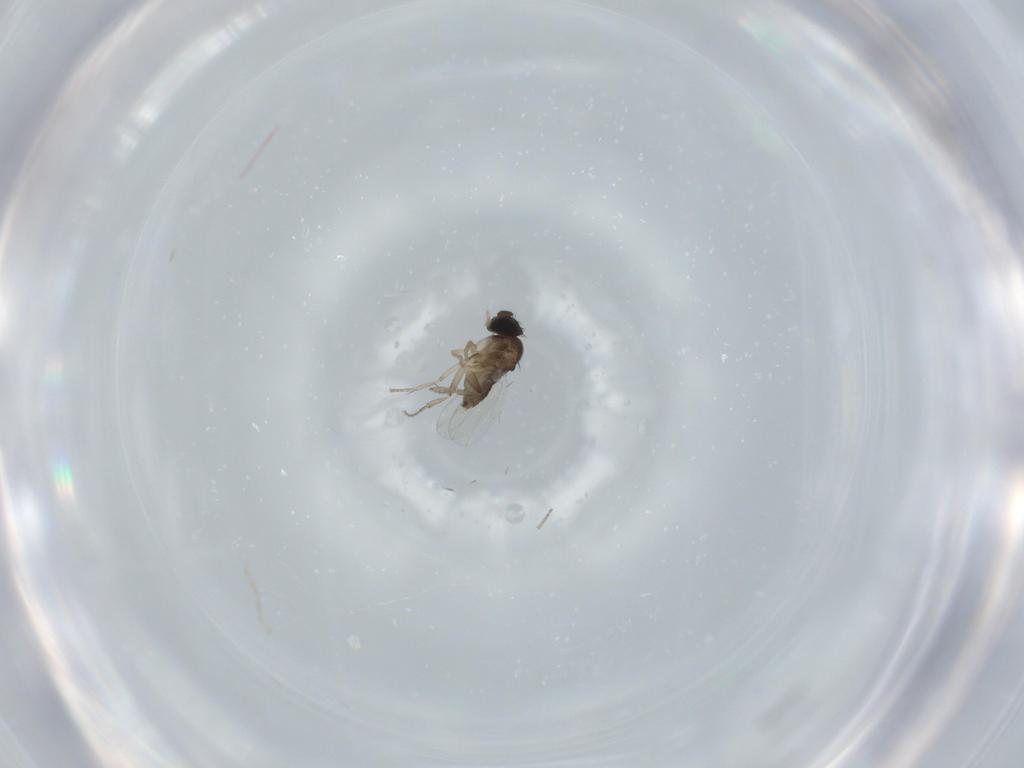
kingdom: Animalia
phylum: Arthropoda
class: Insecta
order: Diptera
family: Phoridae
